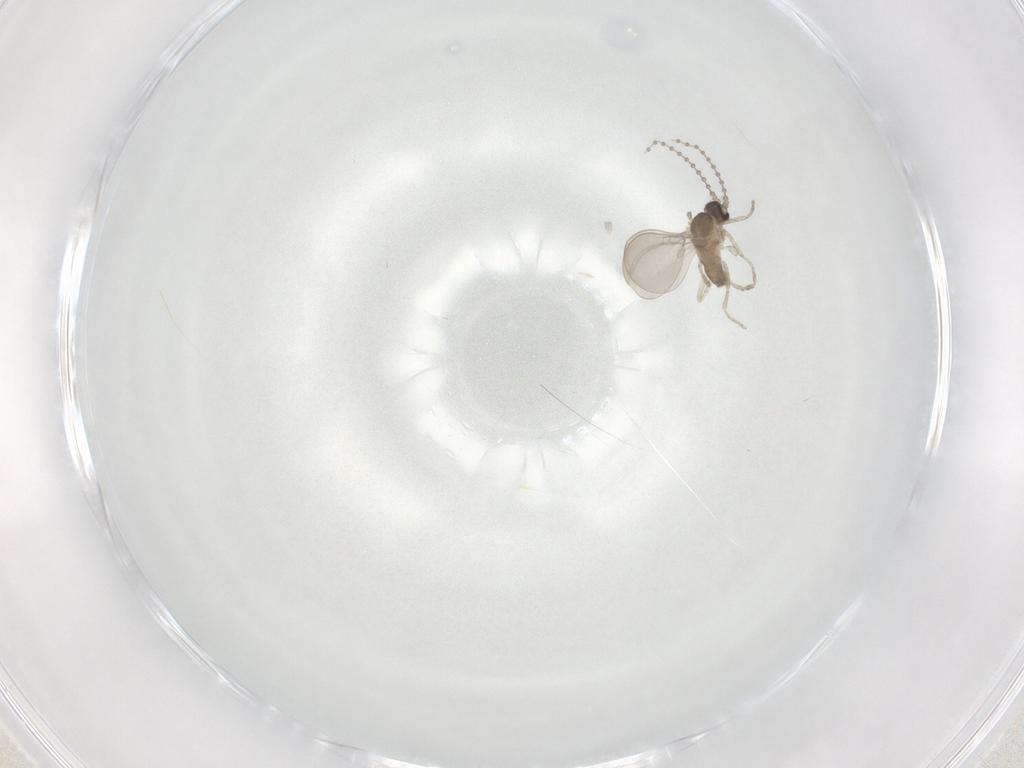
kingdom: Animalia
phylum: Arthropoda
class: Insecta
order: Diptera
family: Cecidomyiidae
